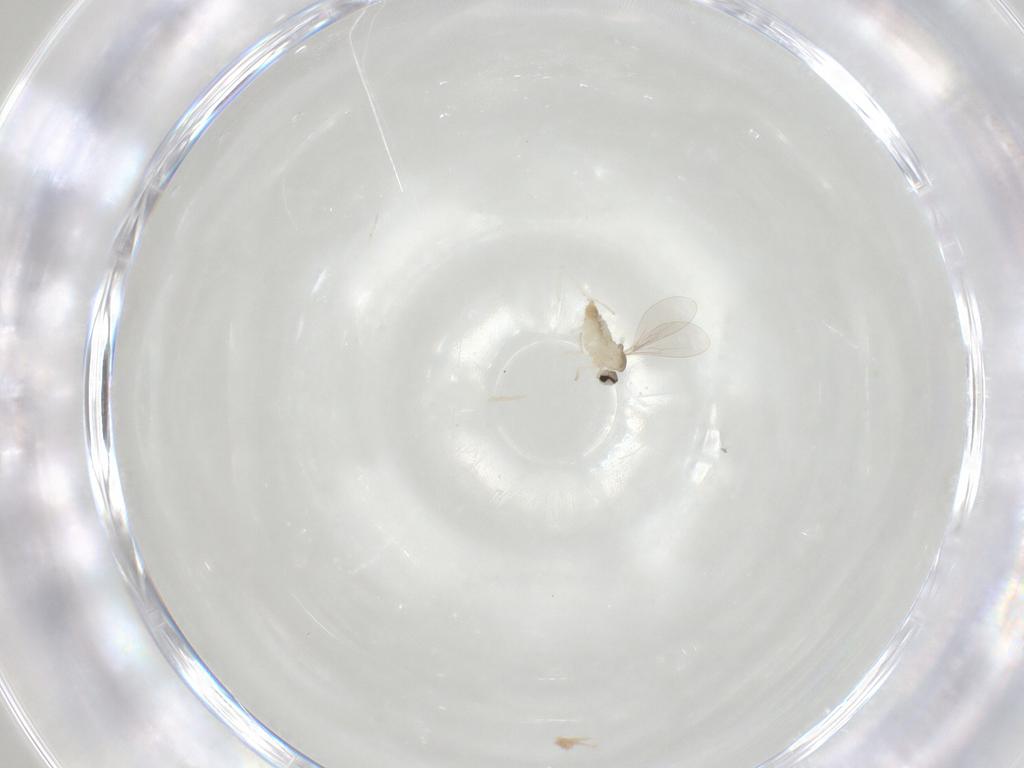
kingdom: Animalia
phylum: Arthropoda
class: Insecta
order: Diptera
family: Cecidomyiidae
